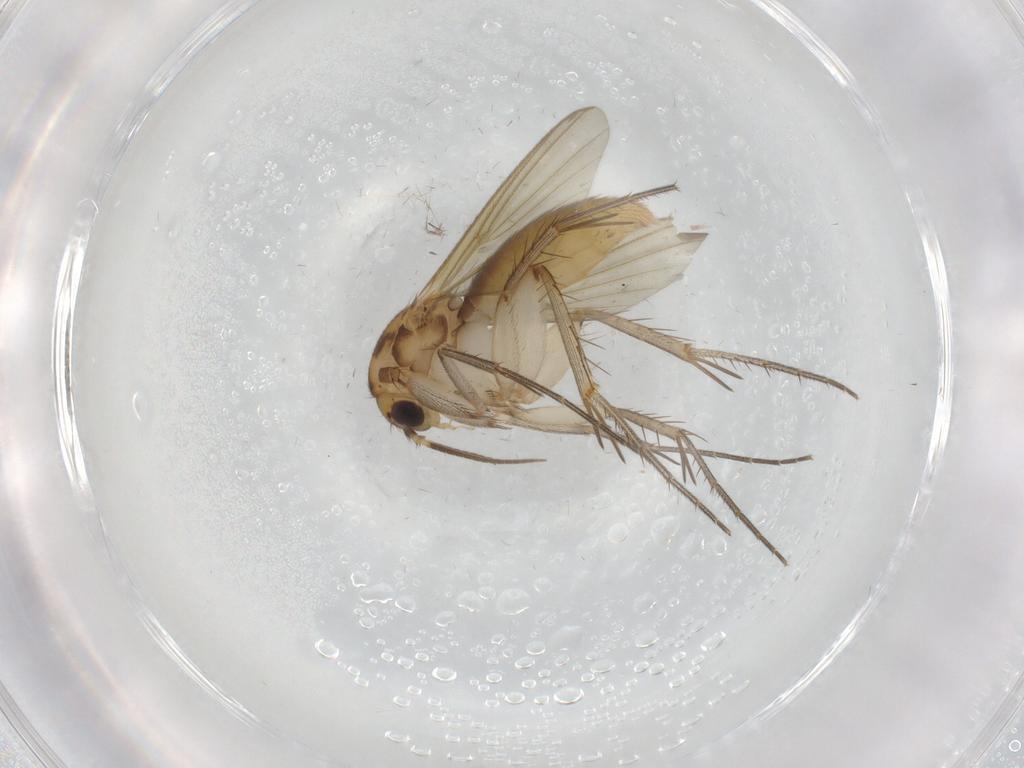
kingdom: Animalia
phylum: Arthropoda
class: Insecta
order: Diptera
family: Mycetophilidae
